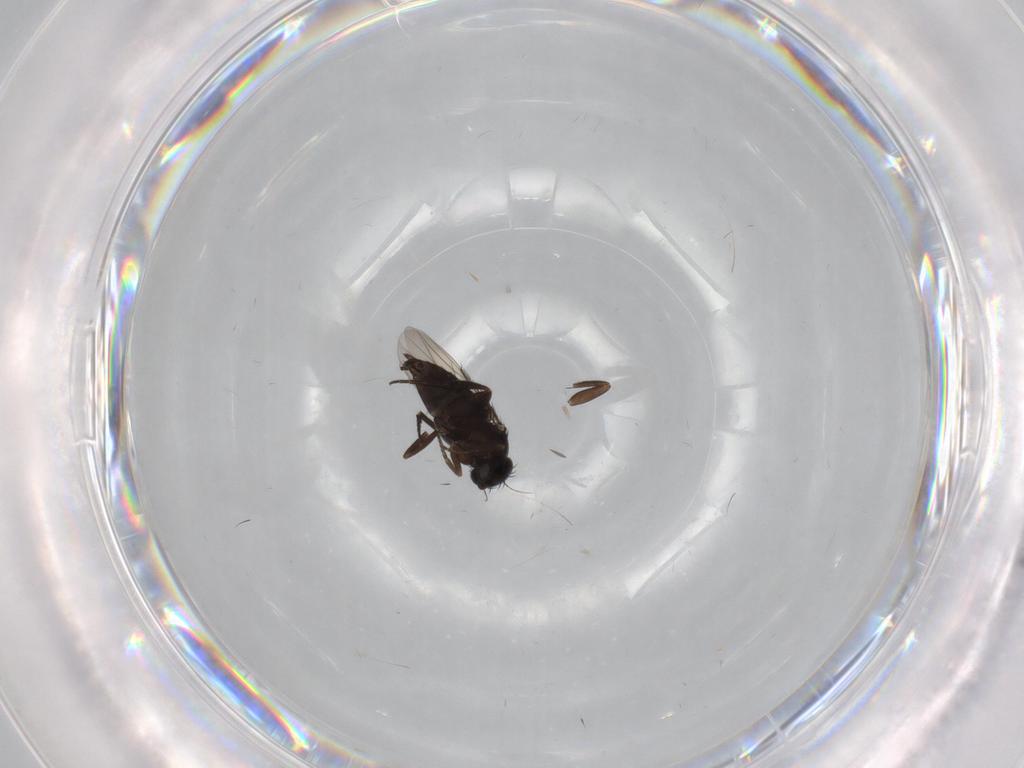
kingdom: Animalia
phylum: Arthropoda
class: Insecta
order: Diptera
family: Phoridae
